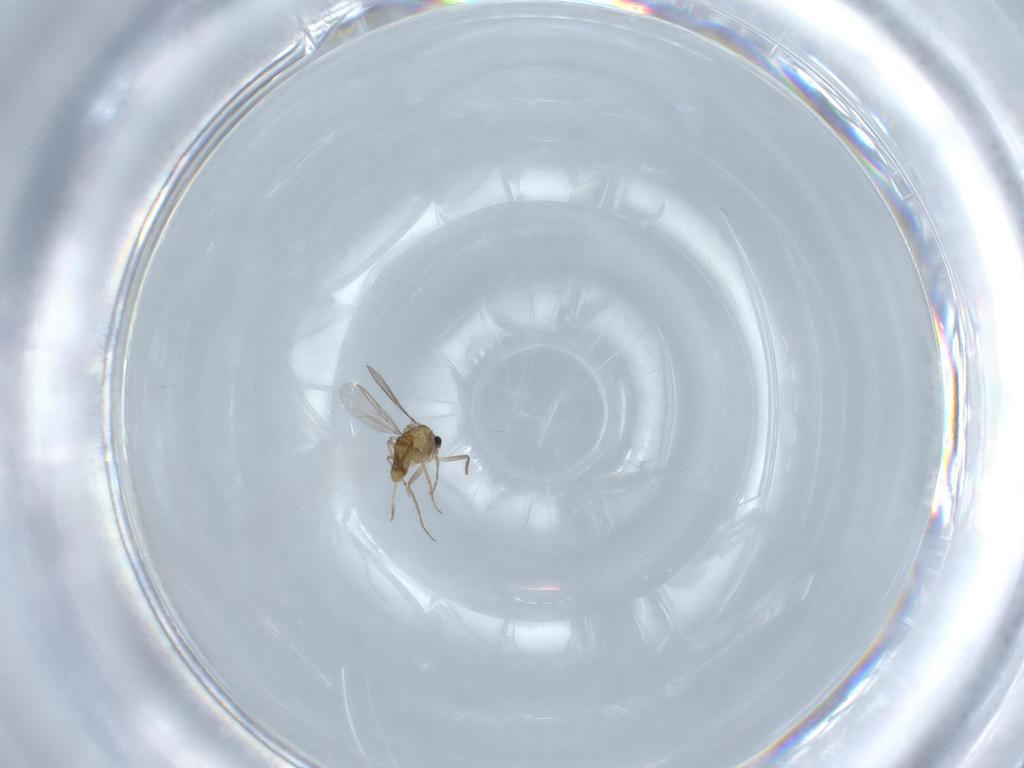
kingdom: Animalia
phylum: Arthropoda
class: Insecta
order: Diptera
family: Chironomidae
